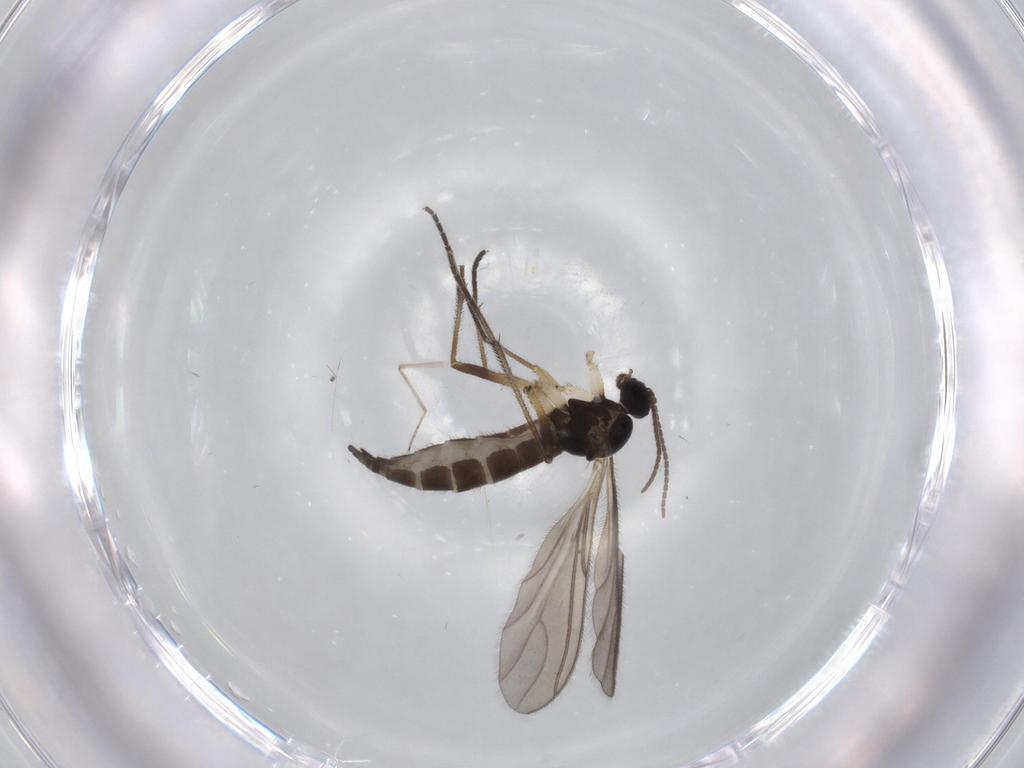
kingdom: Animalia
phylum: Arthropoda
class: Insecta
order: Diptera
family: Sciaridae
